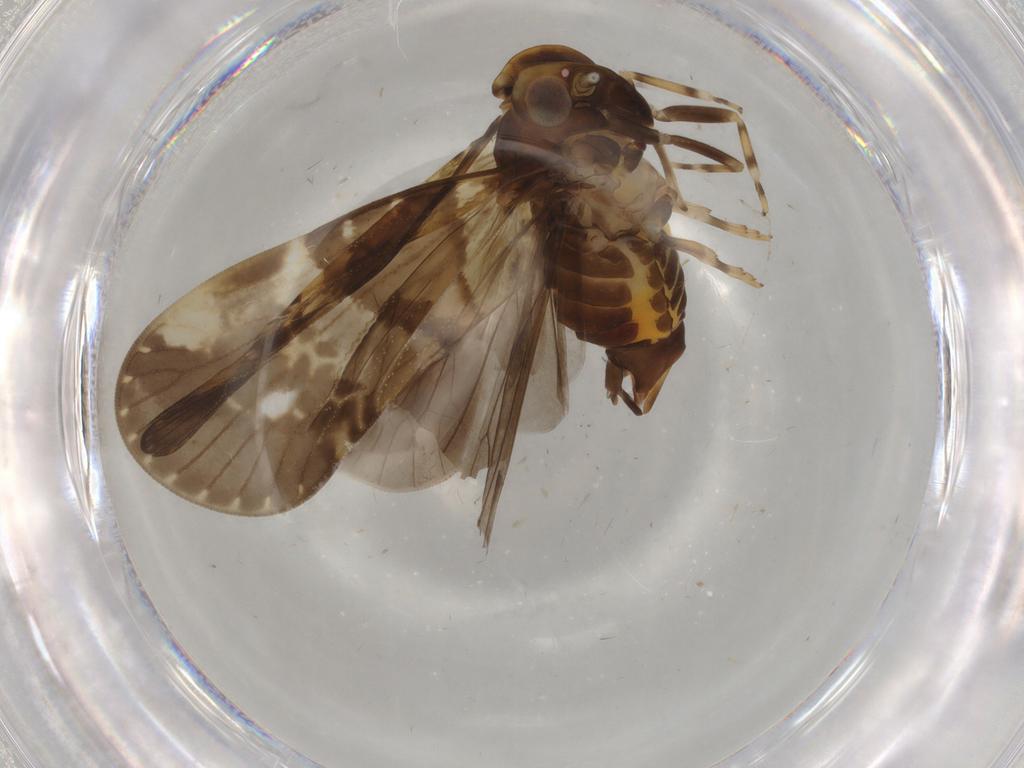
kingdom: Animalia
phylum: Arthropoda
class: Insecta
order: Hemiptera
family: Cixiidae
